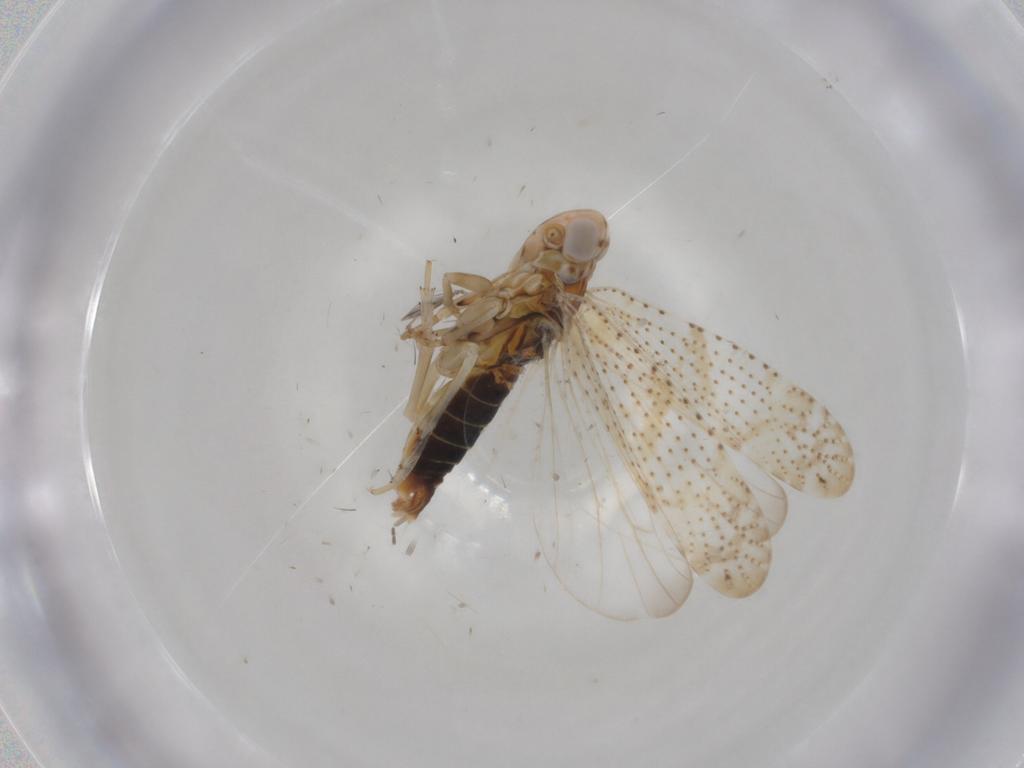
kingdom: Animalia
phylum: Arthropoda
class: Insecta
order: Hemiptera
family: Cixiidae
